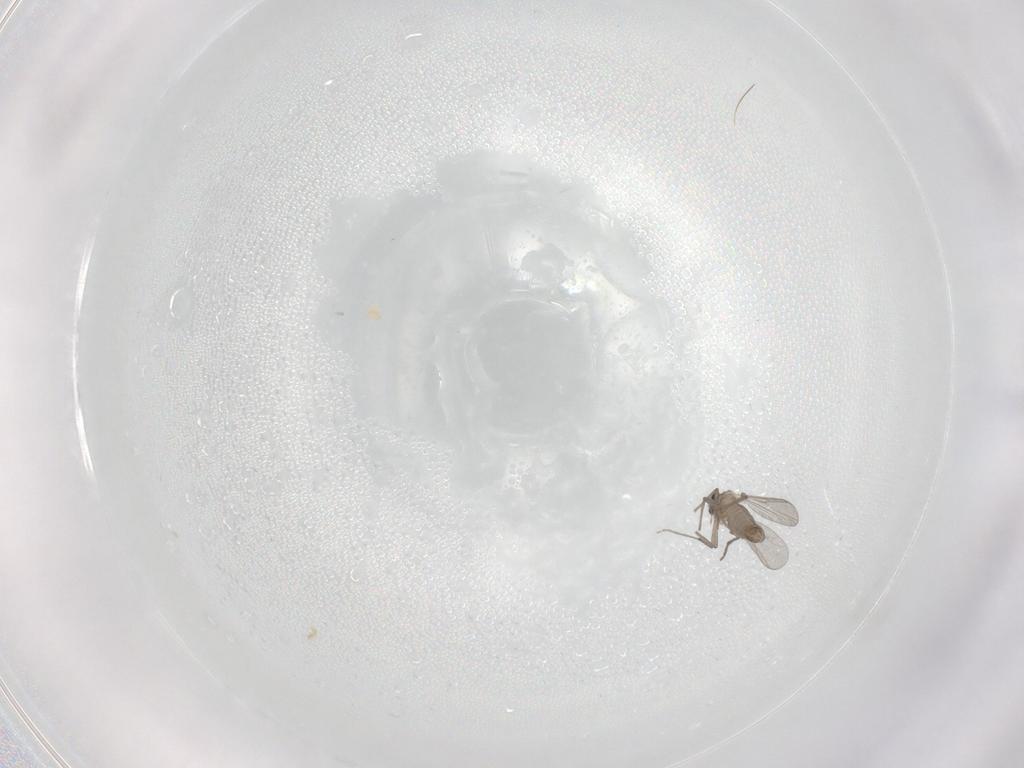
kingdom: Animalia
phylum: Arthropoda
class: Insecta
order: Diptera
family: Chironomidae
